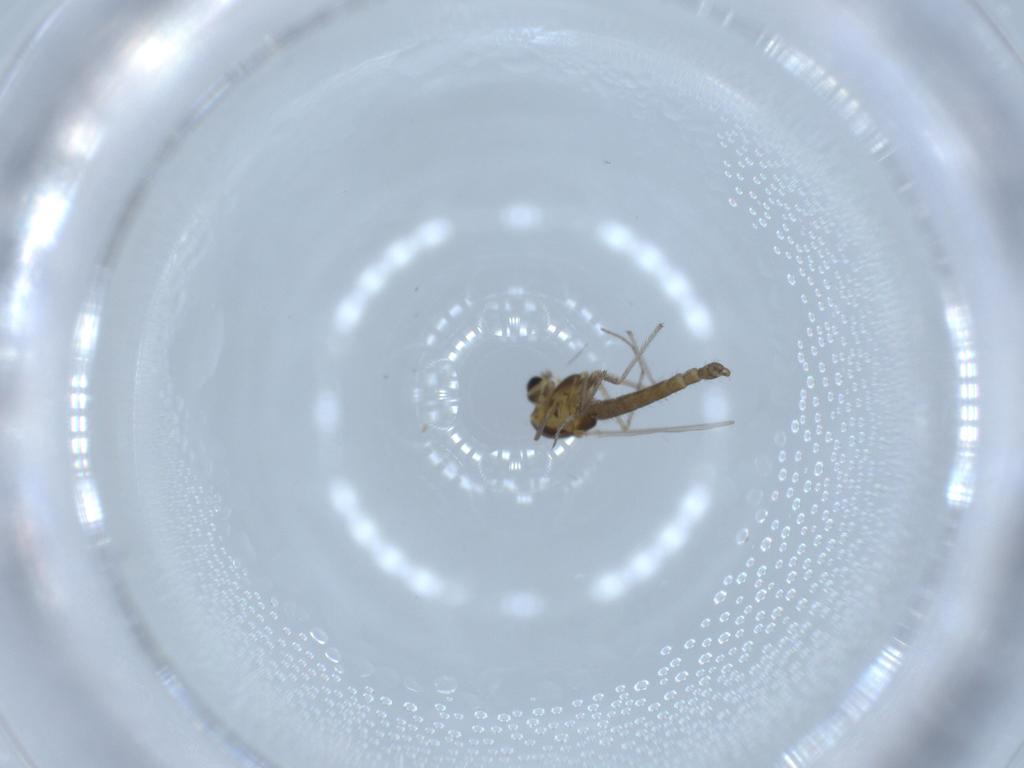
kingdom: Animalia
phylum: Arthropoda
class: Insecta
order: Diptera
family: Chironomidae
